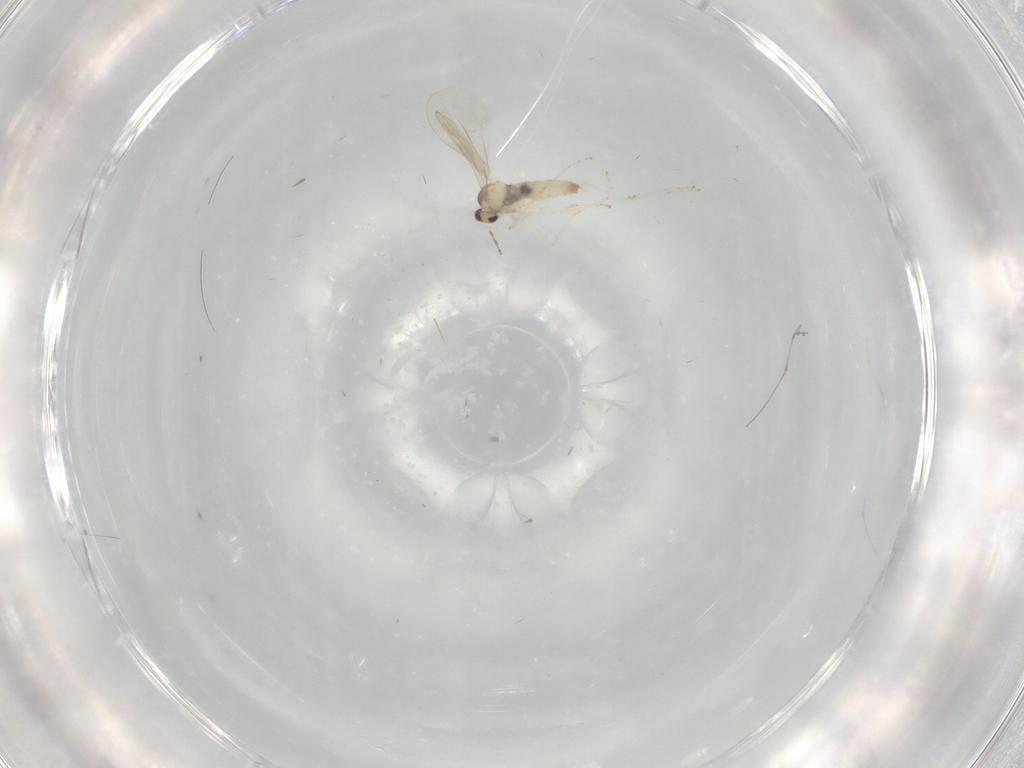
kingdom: Animalia
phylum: Arthropoda
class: Insecta
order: Diptera
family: Cecidomyiidae
